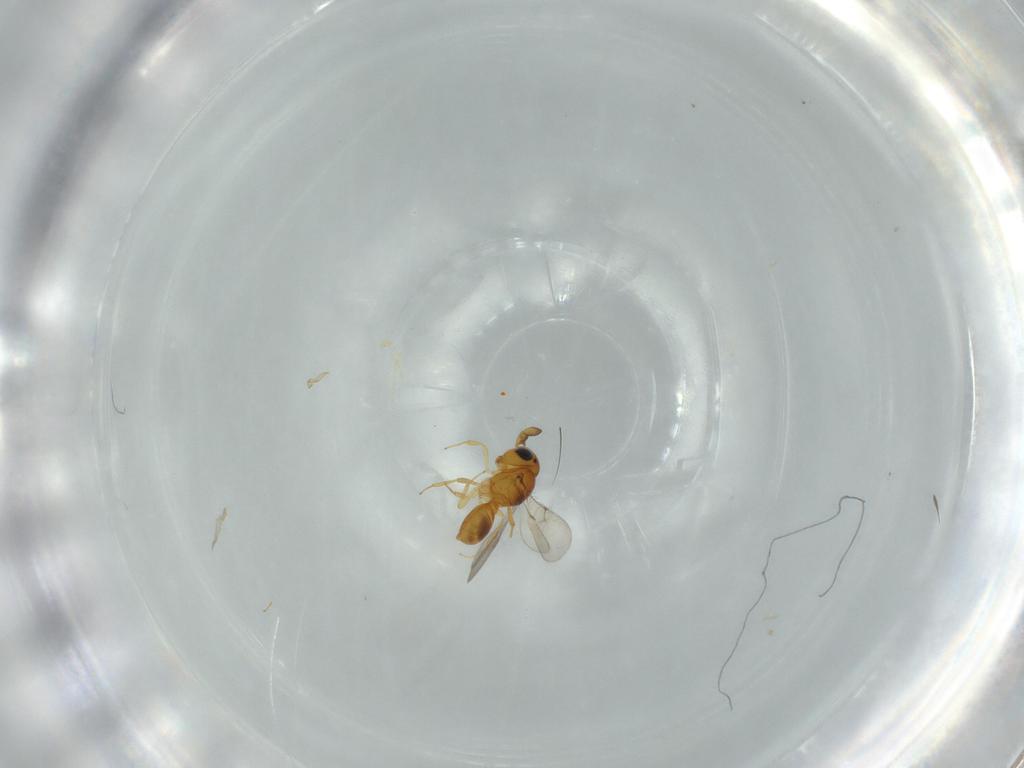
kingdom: Animalia
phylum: Arthropoda
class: Insecta
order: Hymenoptera
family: Scelionidae
